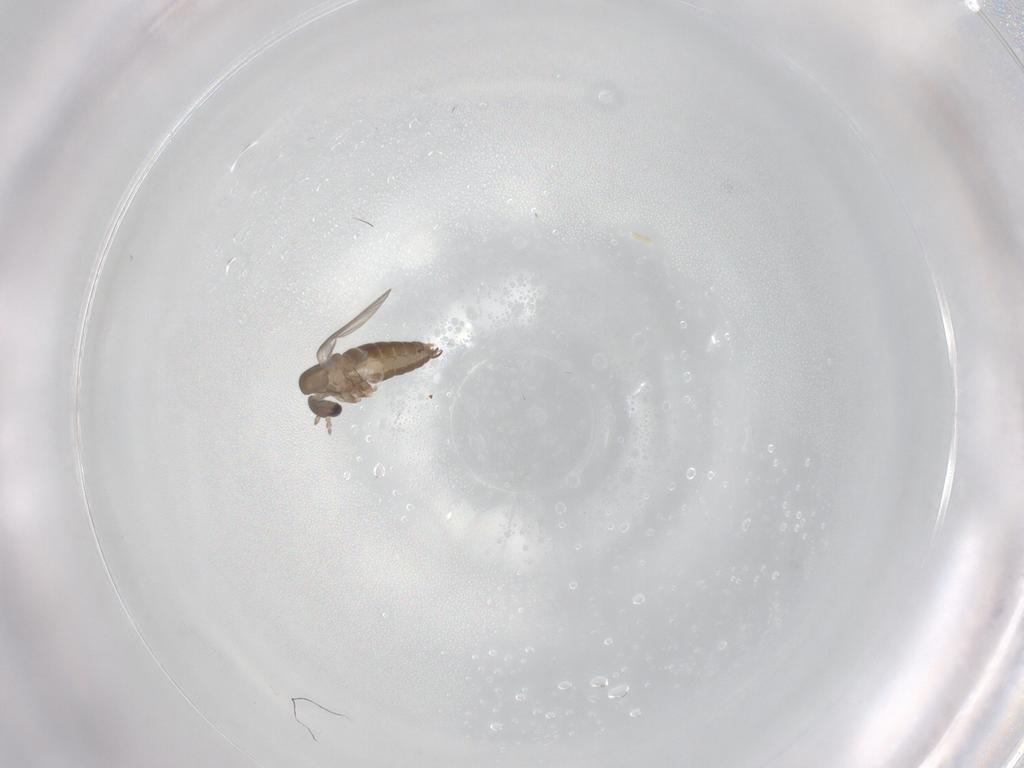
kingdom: Animalia
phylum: Arthropoda
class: Insecta
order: Diptera
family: Psychodidae
